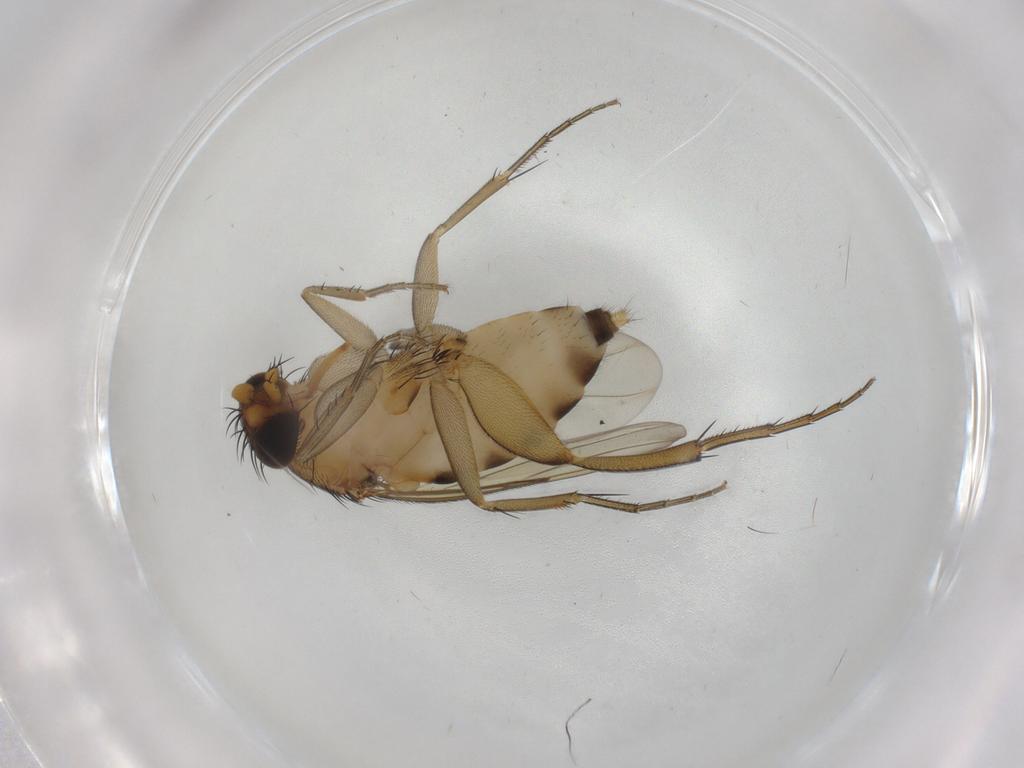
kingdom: Animalia
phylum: Arthropoda
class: Insecta
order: Diptera
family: Phoridae
